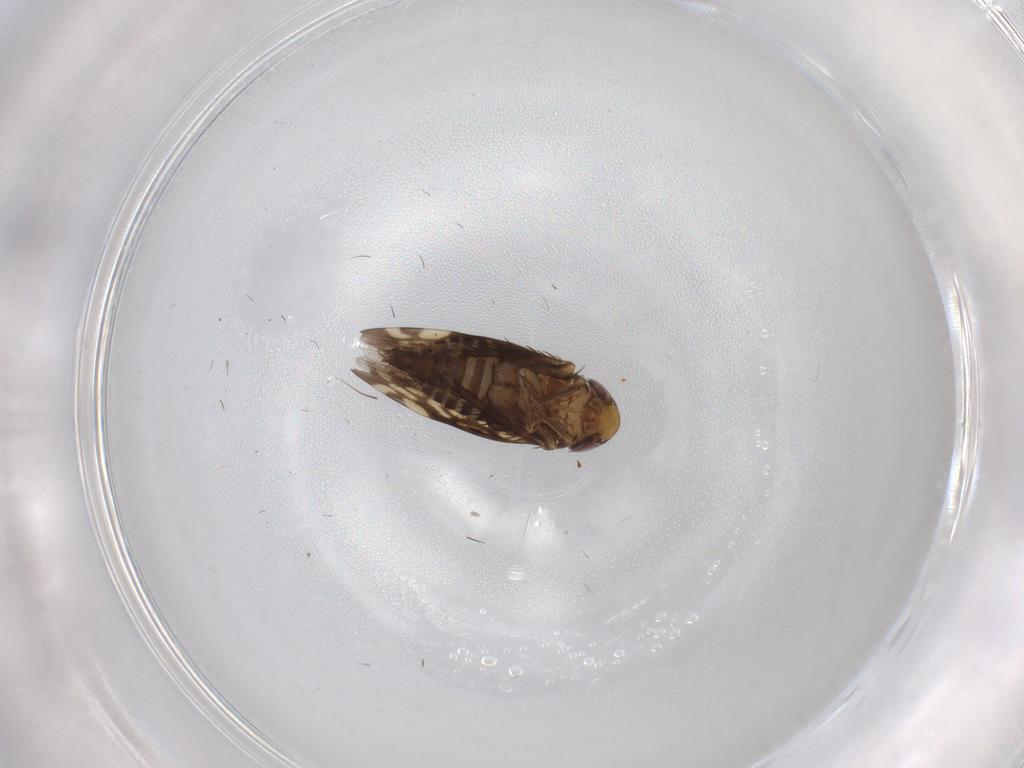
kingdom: Animalia
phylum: Arthropoda
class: Insecta
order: Hemiptera
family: Cicadellidae
